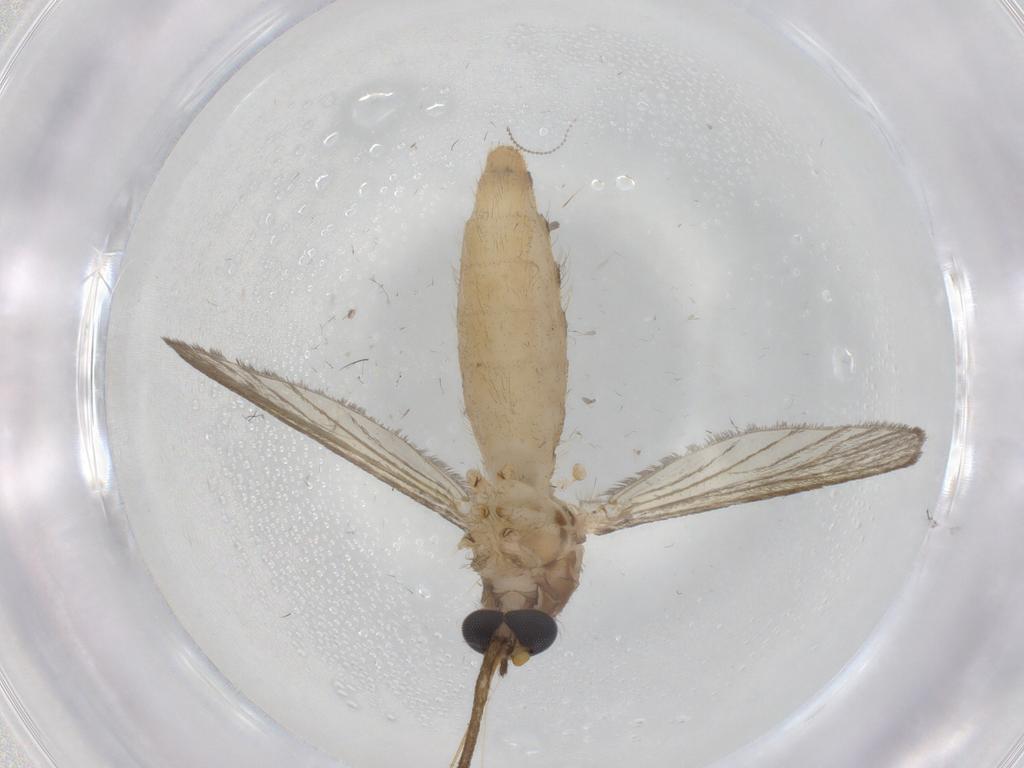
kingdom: Animalia
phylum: Arthropoda
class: Insecta
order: Diptera
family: Culicidae
